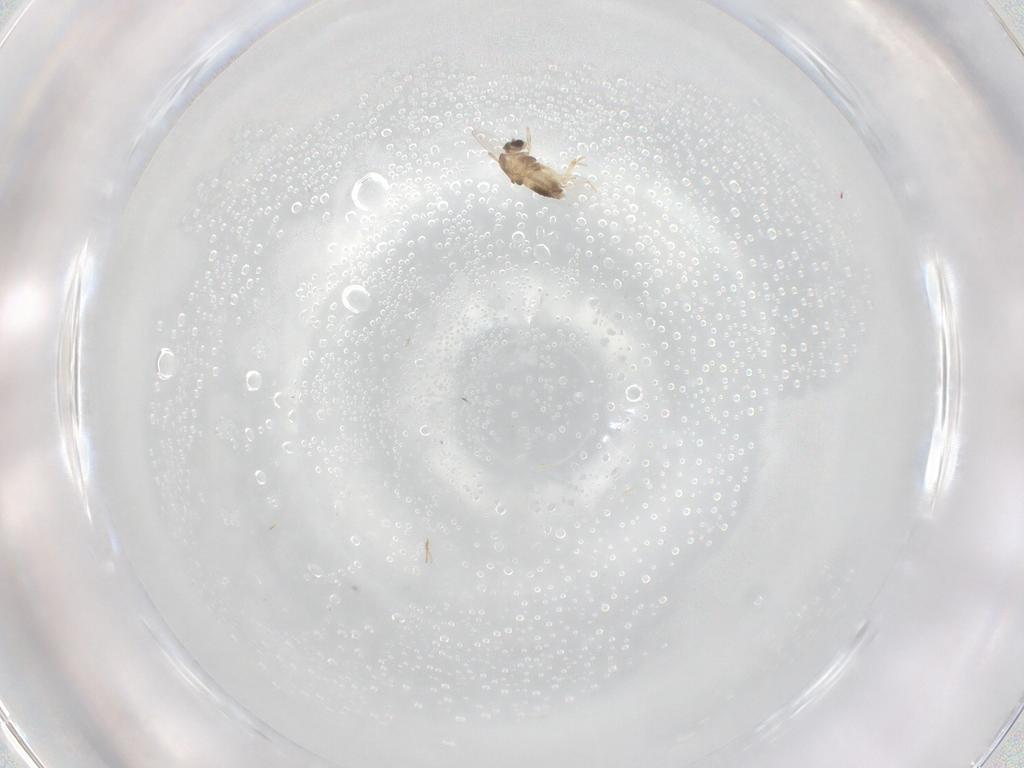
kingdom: Animalia
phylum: Arthropoda
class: Insecta
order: Diptera
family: Chironomidae
